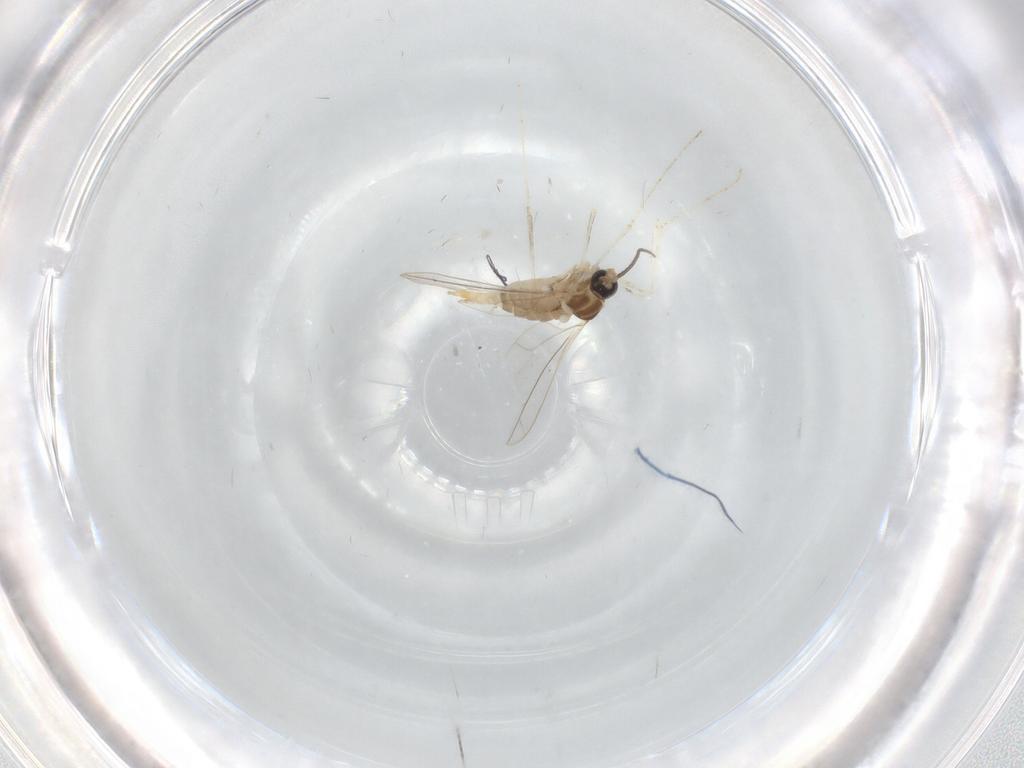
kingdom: Animalia
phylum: Arthropoda
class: Insecta
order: Diptera
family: Cecidomyiidae
